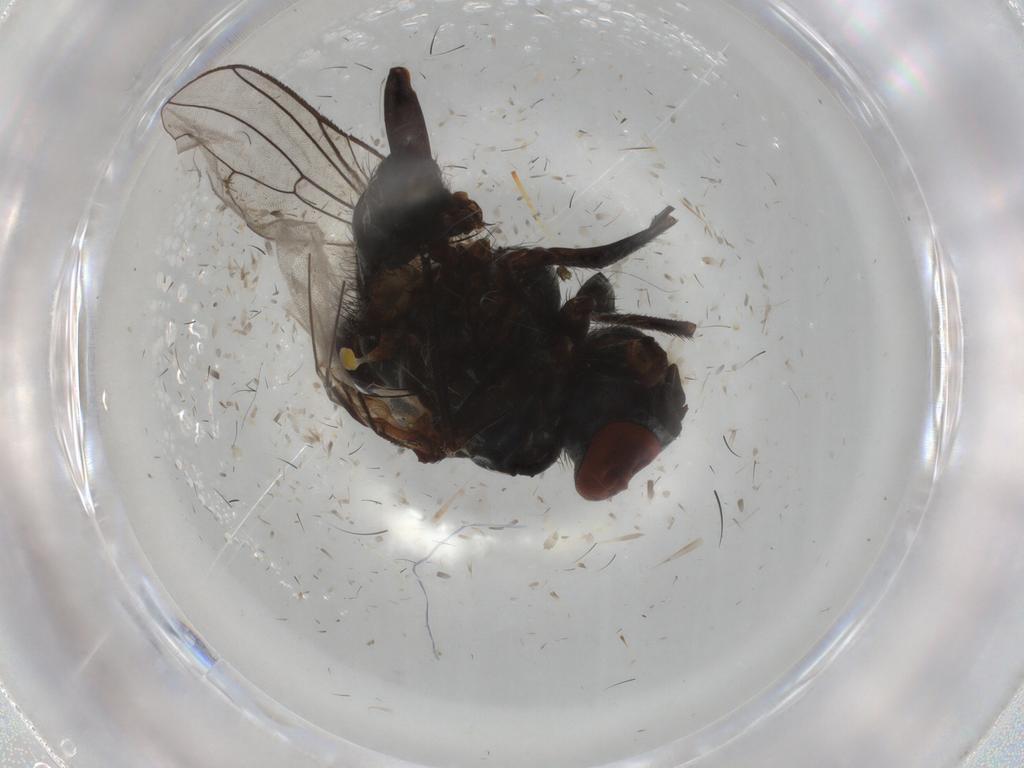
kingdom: Animalia
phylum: Arthropoda
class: Insecta
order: Diptera
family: Anthomyiidae
